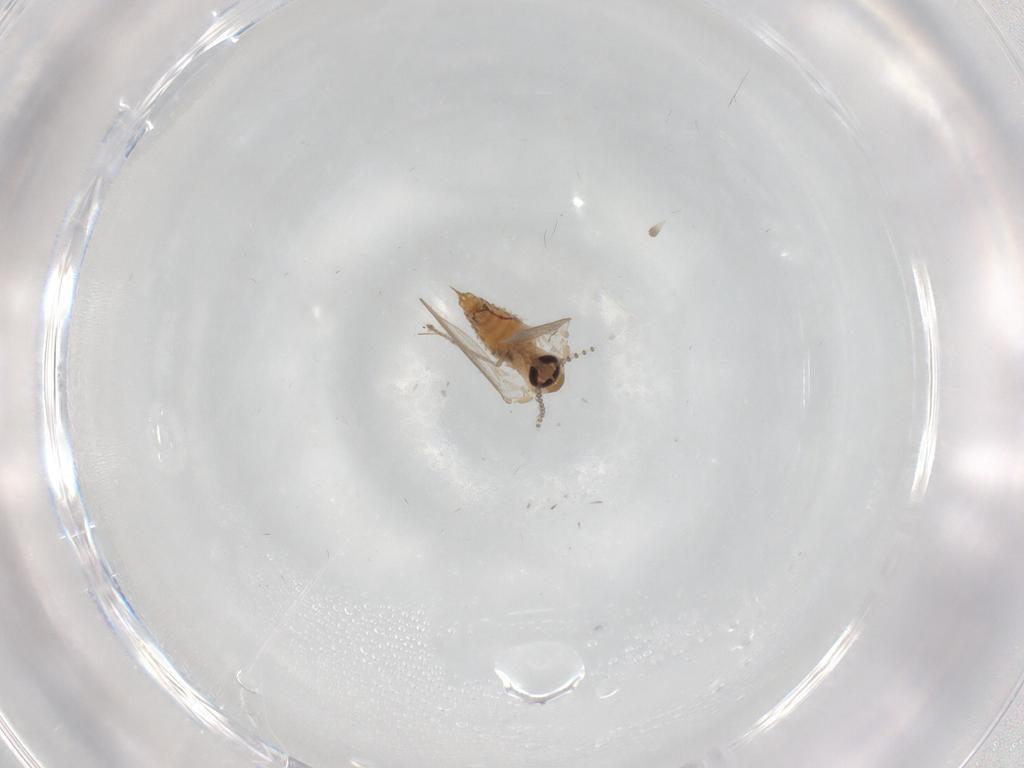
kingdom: Animalia
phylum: Arthropoda
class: Insecta
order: Diptera
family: Psychodidae
